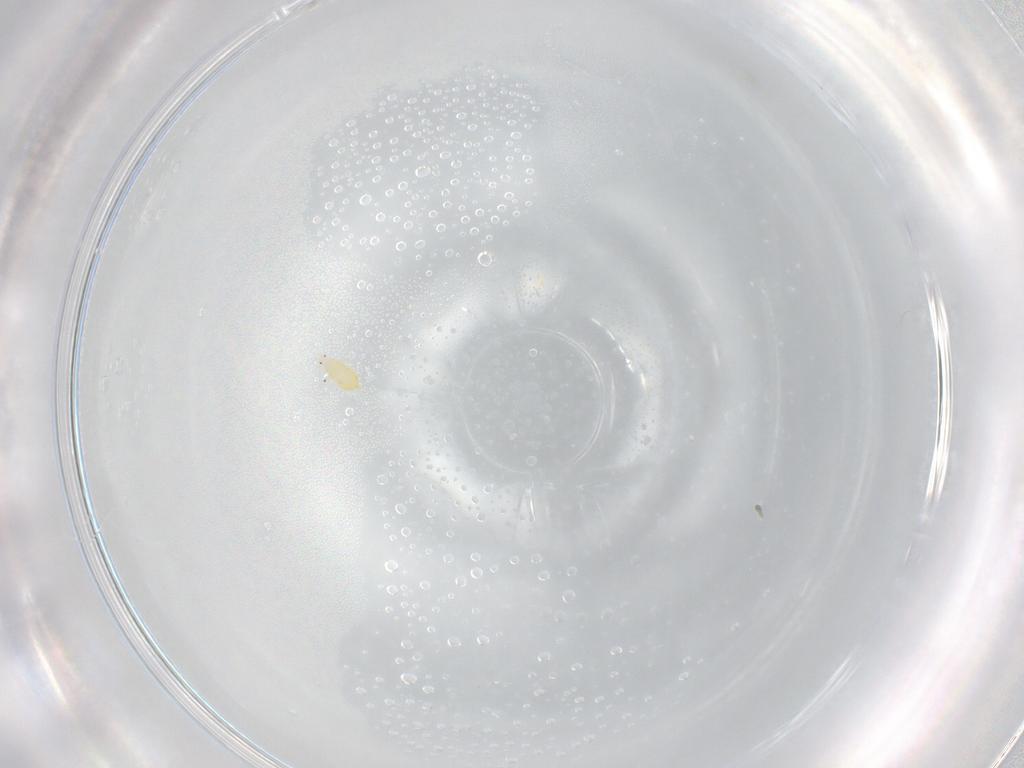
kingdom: Animalia
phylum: Arthropoda
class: Insecta
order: Thysanoptera
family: Thripidae
